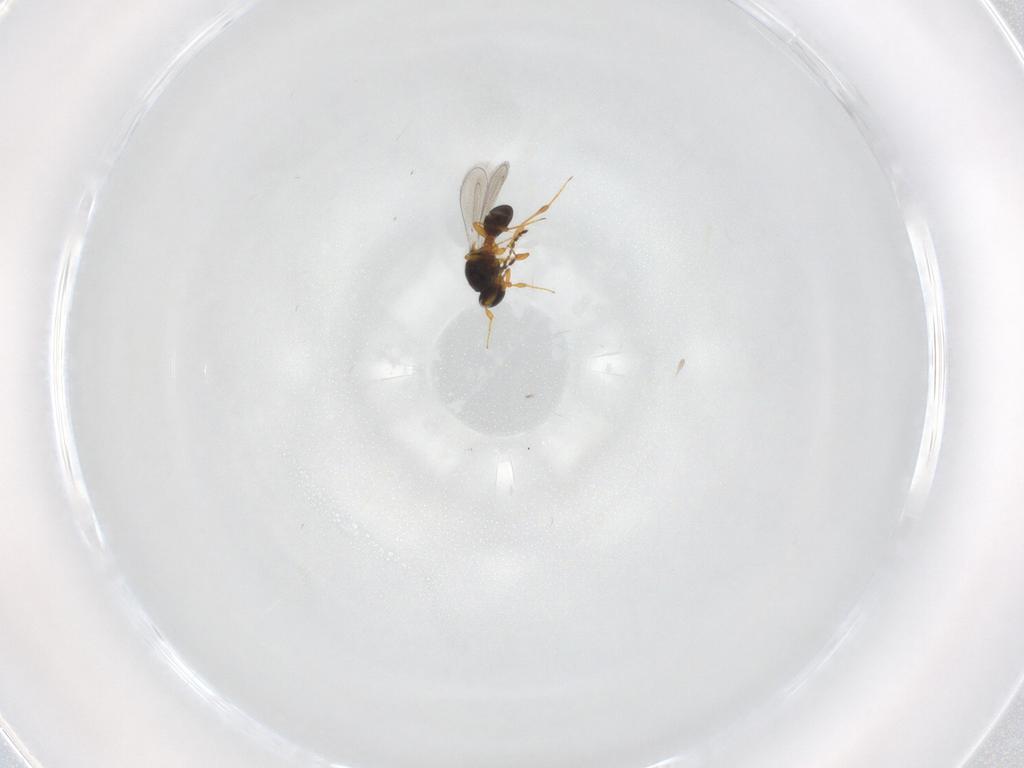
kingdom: Animalia
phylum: Arthropoda
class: Insecta
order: Hymenoptera
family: Platygastridae
